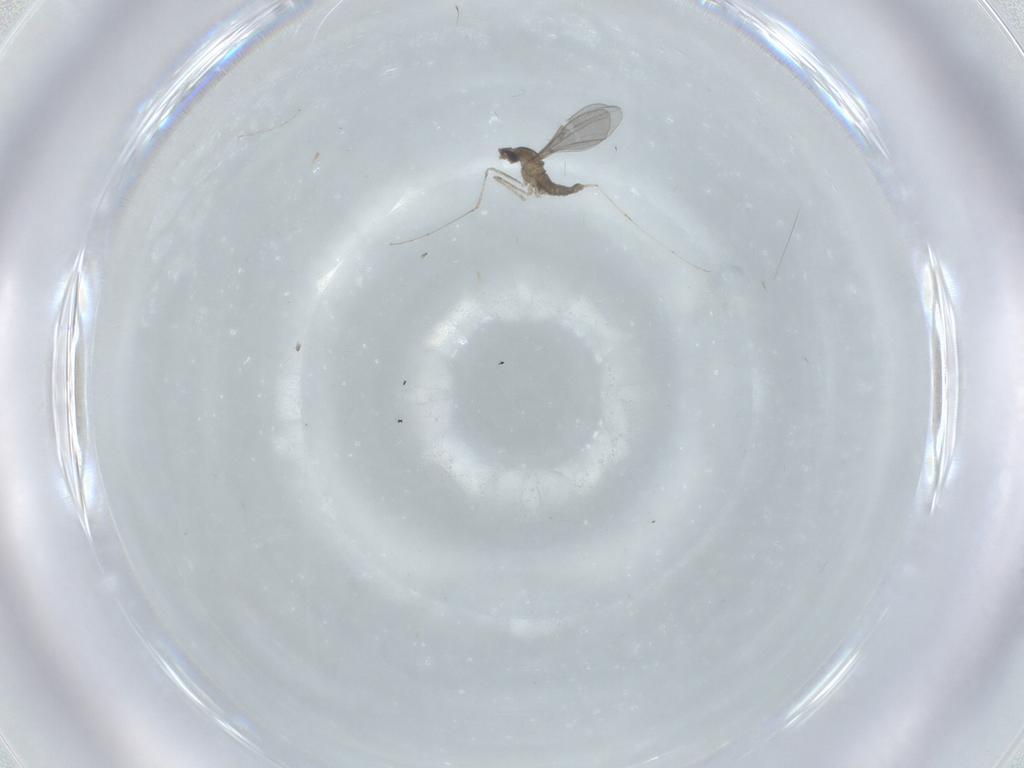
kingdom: Animalia
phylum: Arthropoda
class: Insecta
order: Diptera
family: Cecidomyiidae
